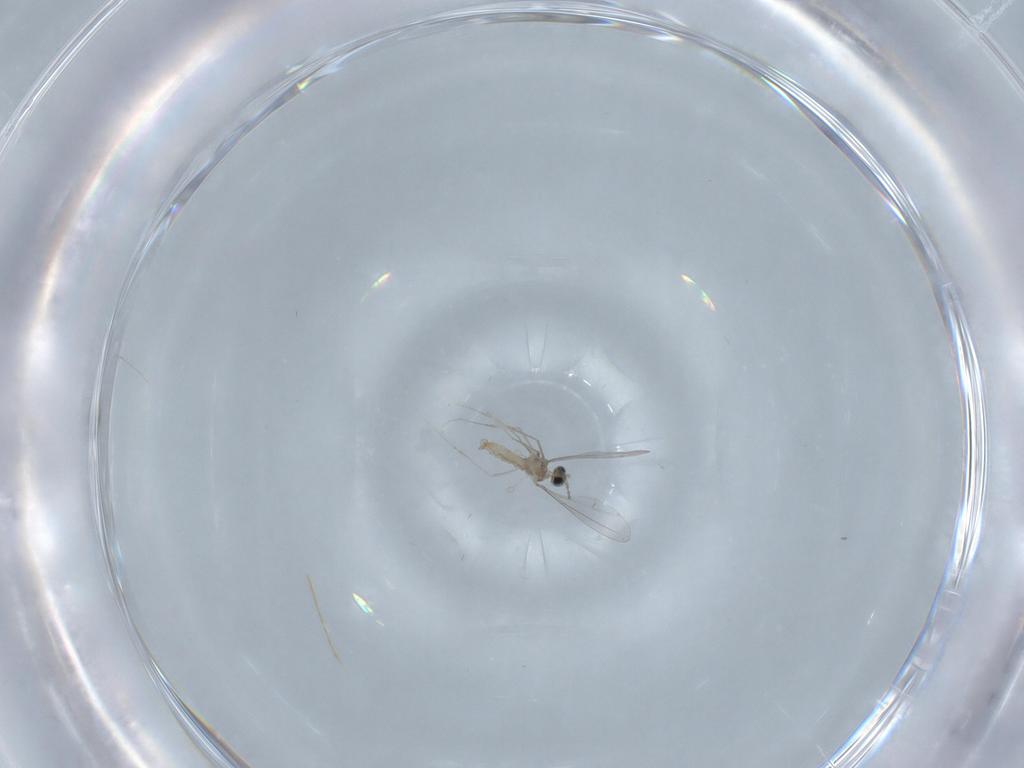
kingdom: Animalia
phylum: Arthropoda
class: Insecta
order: Diptera
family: Cecidomyiidae
